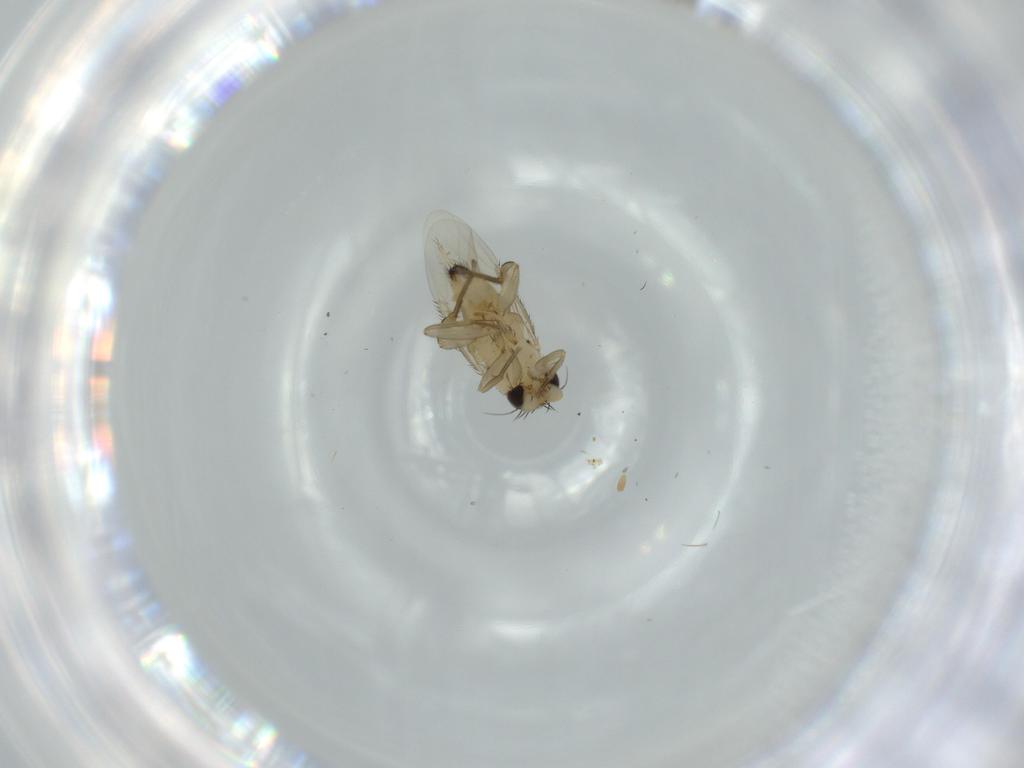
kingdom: Animalia
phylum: Arthropoda
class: Insecta
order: Diptera
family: Phoridae
